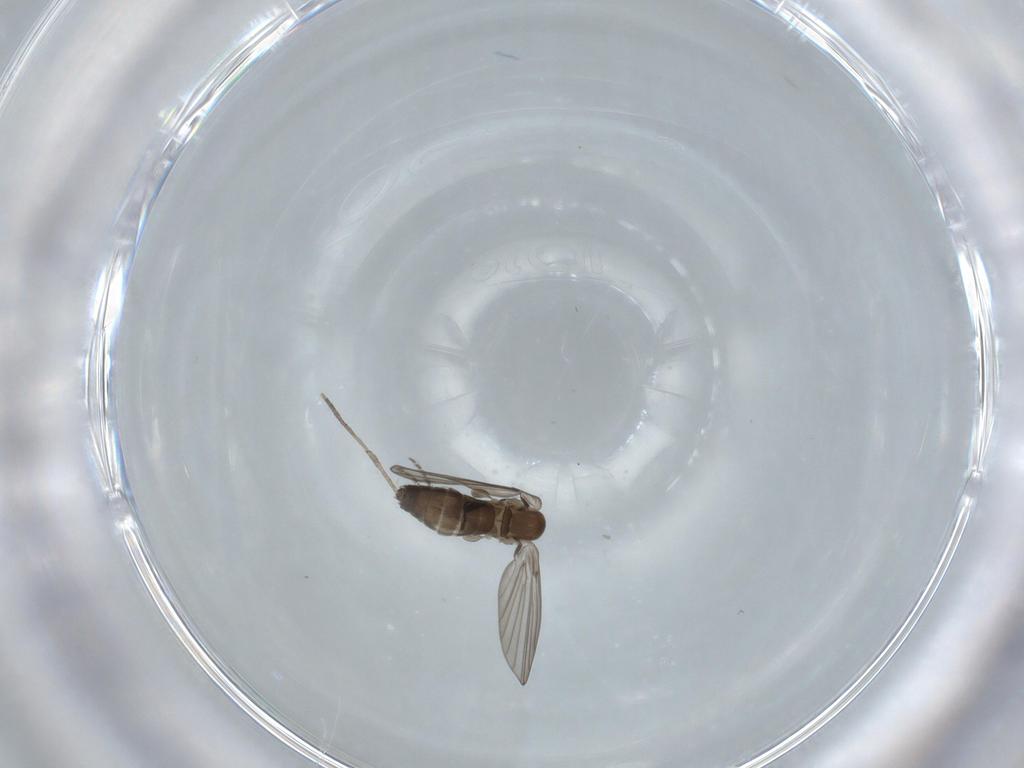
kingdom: Animalia
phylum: Arthropoda
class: Insecta
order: Diptera
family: Psychodidae
